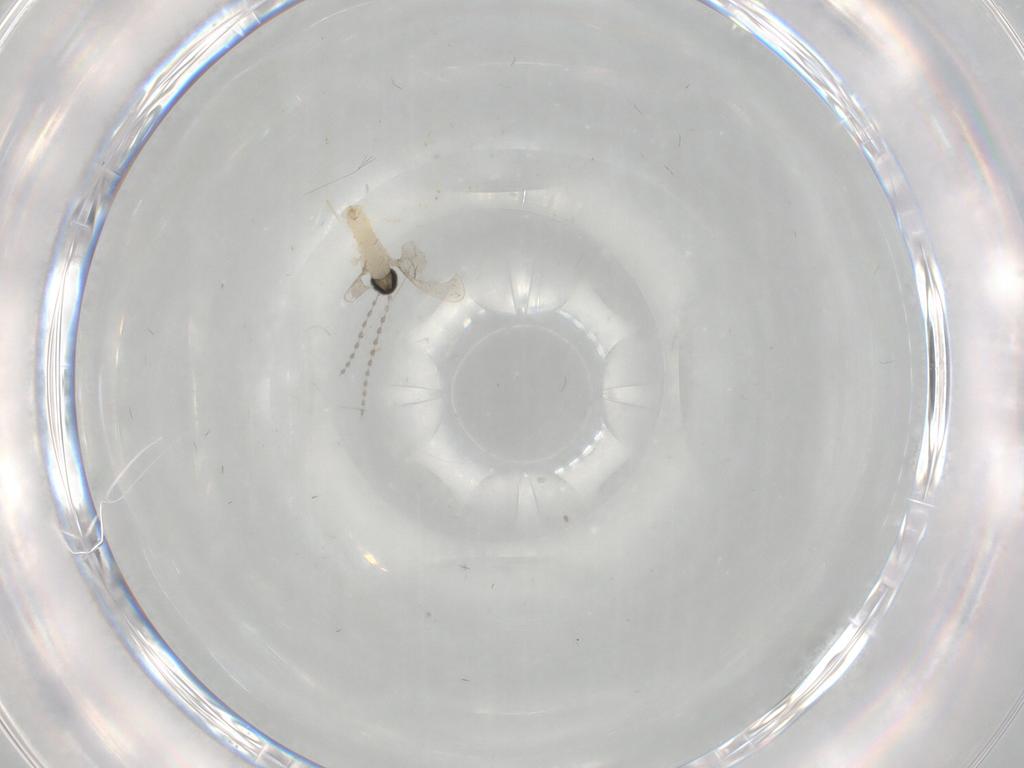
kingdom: Animalia
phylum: Arthropoda
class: Insecta
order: Diptera
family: Cecidomyiidae
